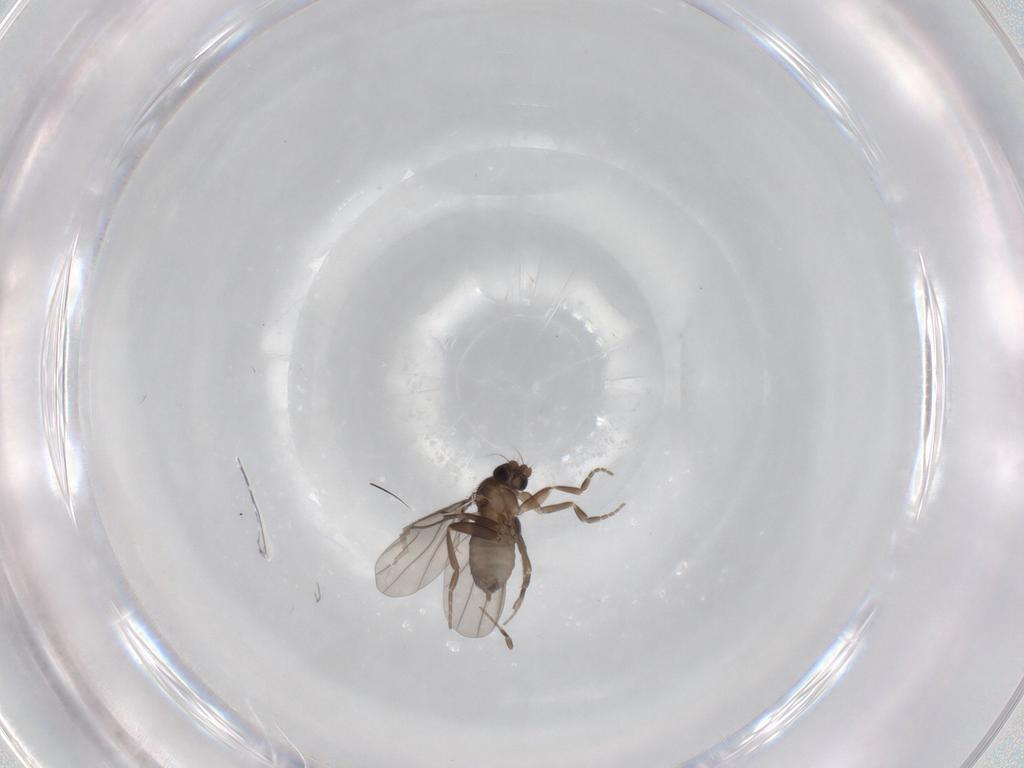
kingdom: Animalia
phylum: Arthropoda
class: Insecta
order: Diptera
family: Phoridae
